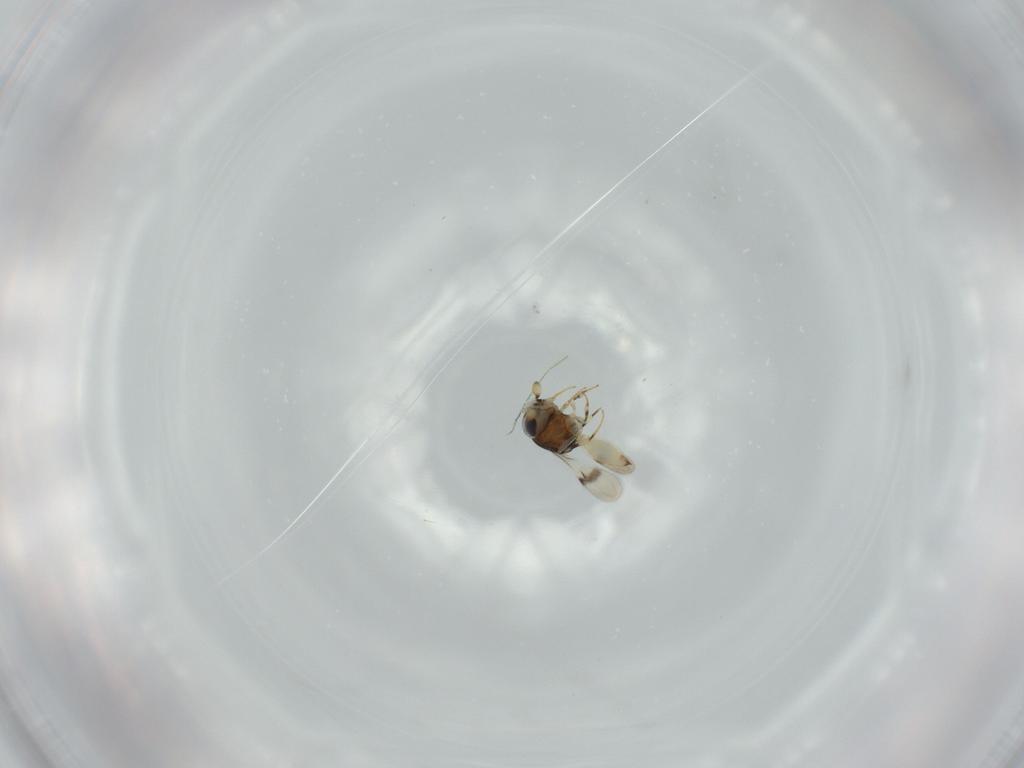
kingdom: Animalia
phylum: Arthropoda
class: Insecta
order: Hymenoptera
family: Scelionidae
